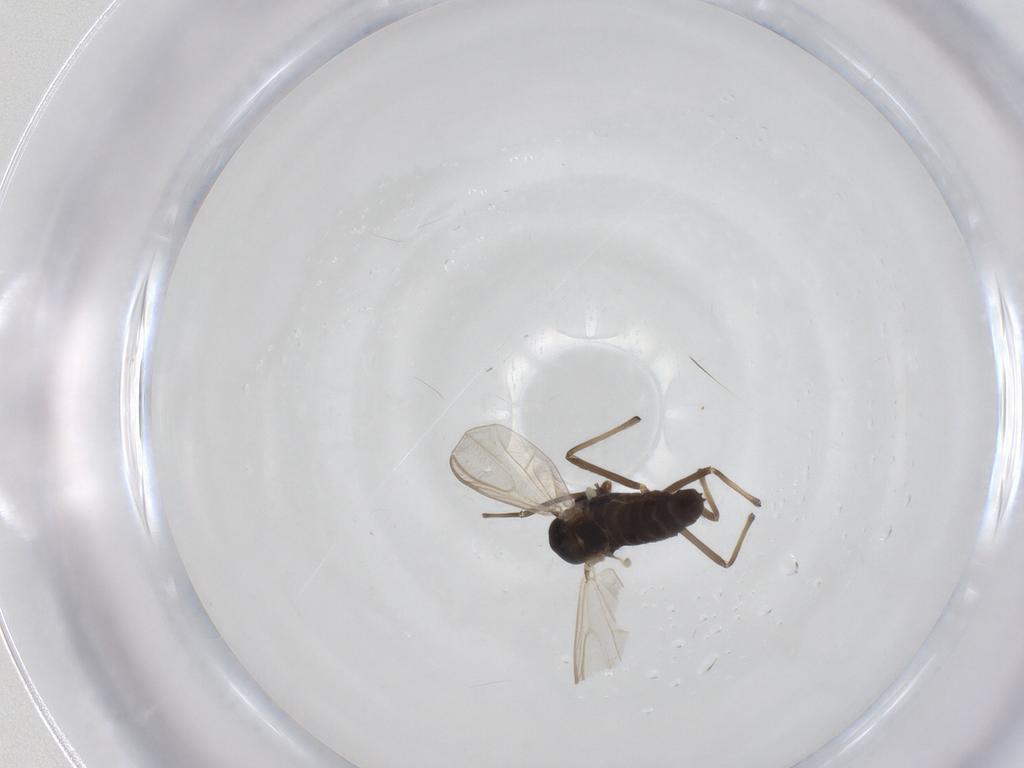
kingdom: Animalia
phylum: Arthropoda
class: Insecta
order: Diptera
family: Chironomidae
